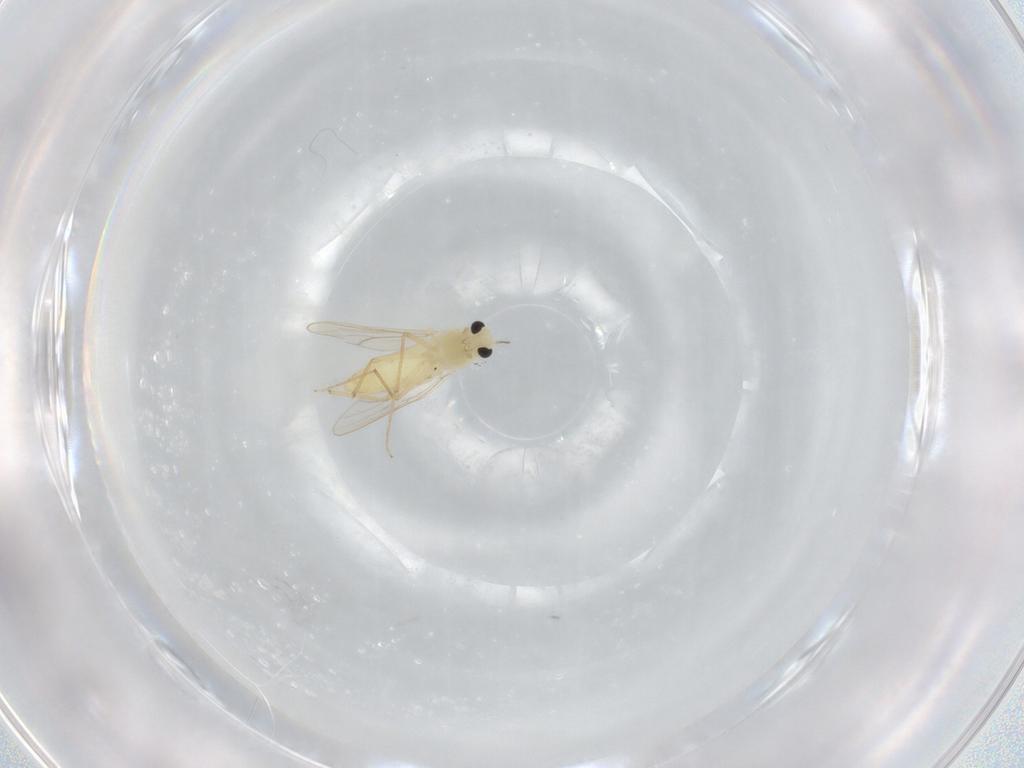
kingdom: Animalia
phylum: Arthropoda
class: Insecta
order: Diptera
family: Chironomidae
